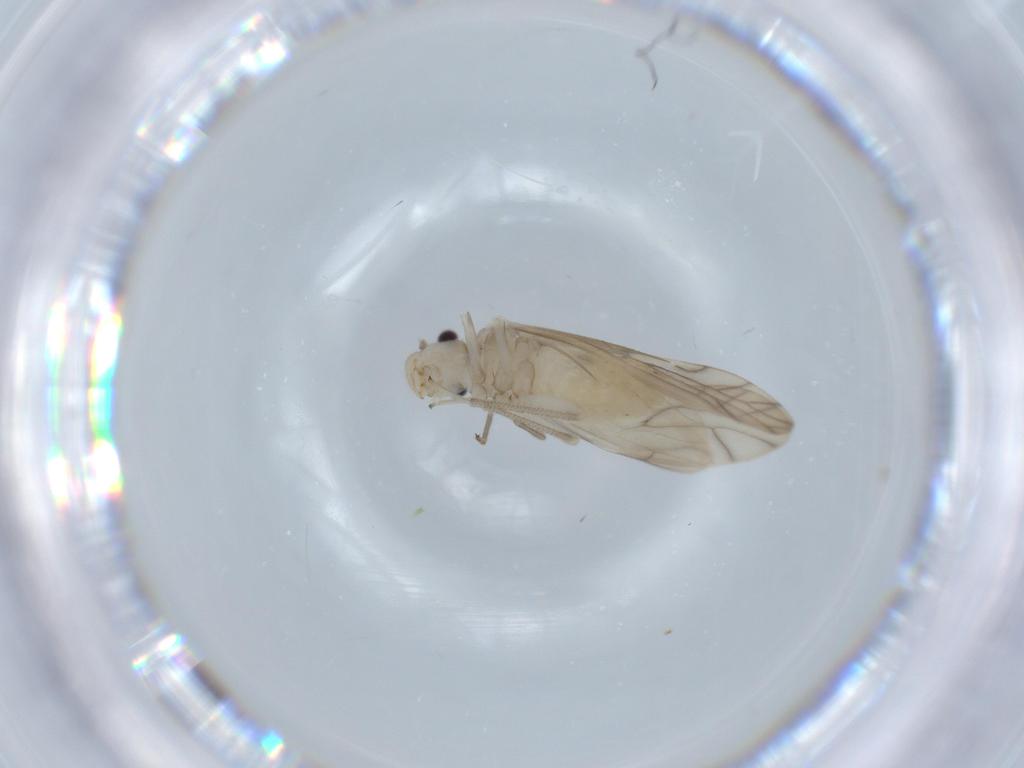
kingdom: Animalia
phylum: Arthropoda
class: Insecta
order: Psocodea
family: Caeciliusidae
